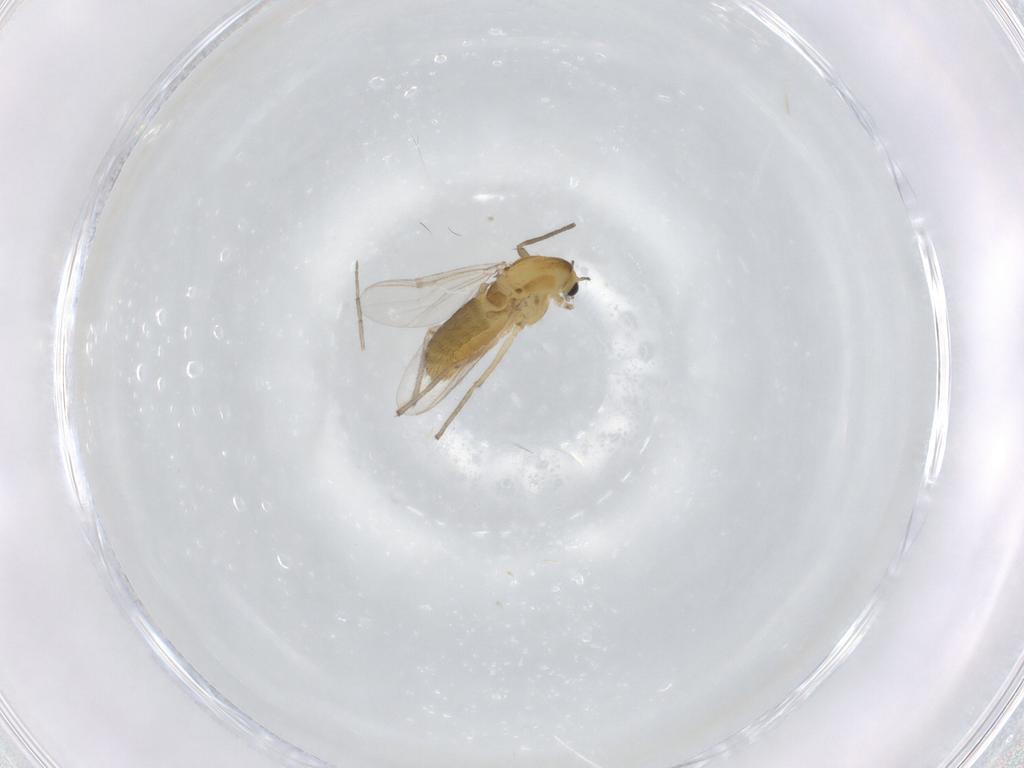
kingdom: Animalia
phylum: Arthropoda
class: Insecta
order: Diptera
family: Chironomidae
